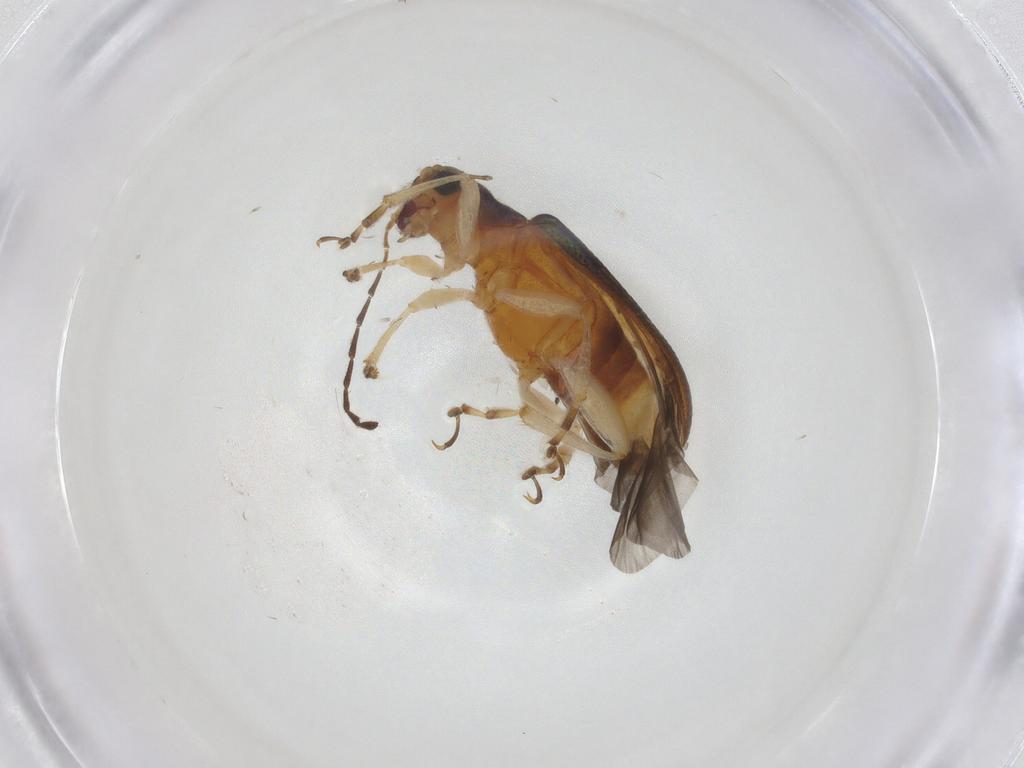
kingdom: Animalia
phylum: Arthropoda
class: Insecta
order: Coleoptera
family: Chrysomelidae
